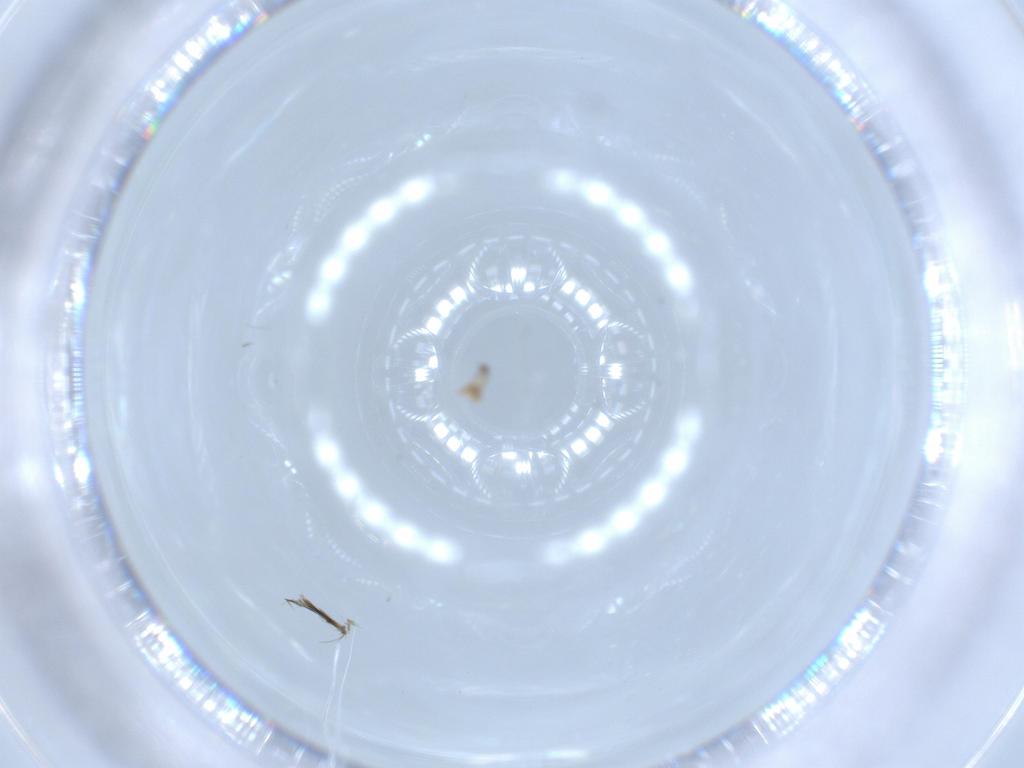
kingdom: Animalia
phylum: Arthropoda
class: Insecta
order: Diptera
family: Cecidomyiidae
